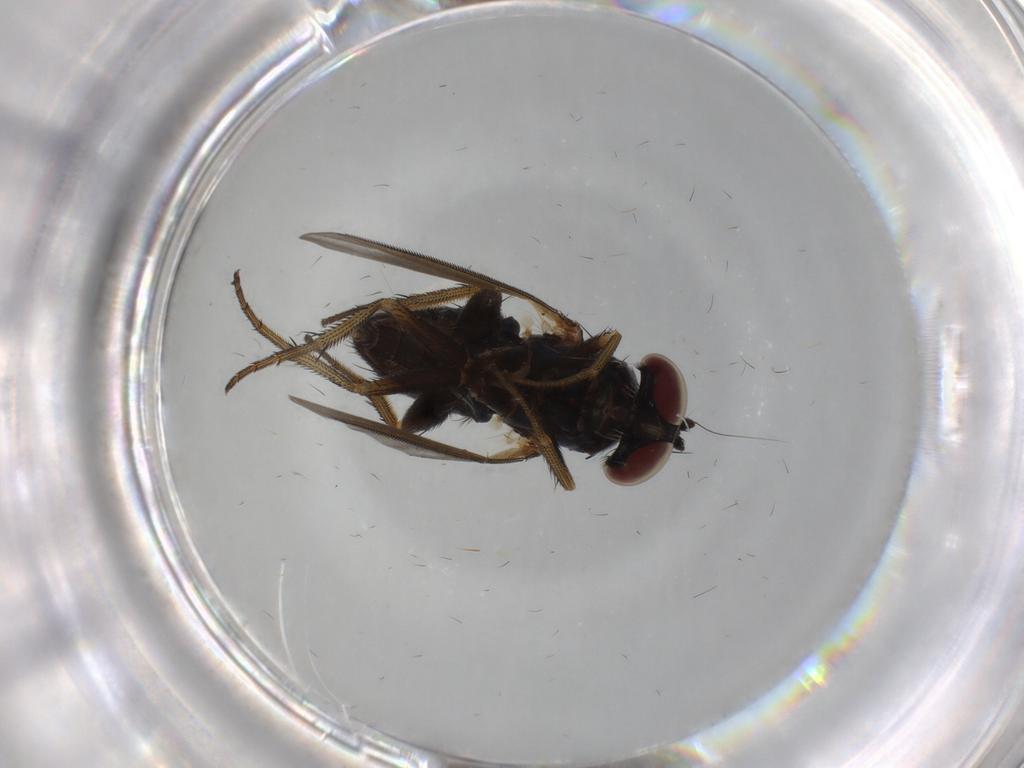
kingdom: Animalia
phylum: Arthropoda
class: Insecta
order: Diptera
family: Dolichopodidae
